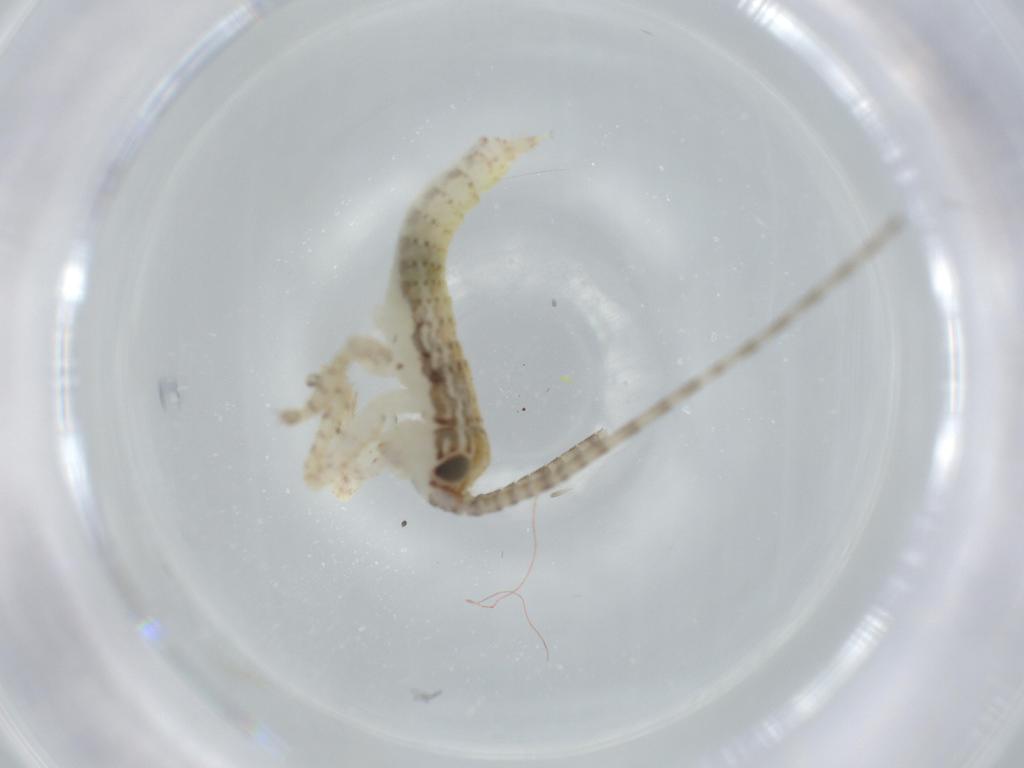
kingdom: Animalia
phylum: Arthropoda
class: Insecta
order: Orthoptera
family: Gryllidae
